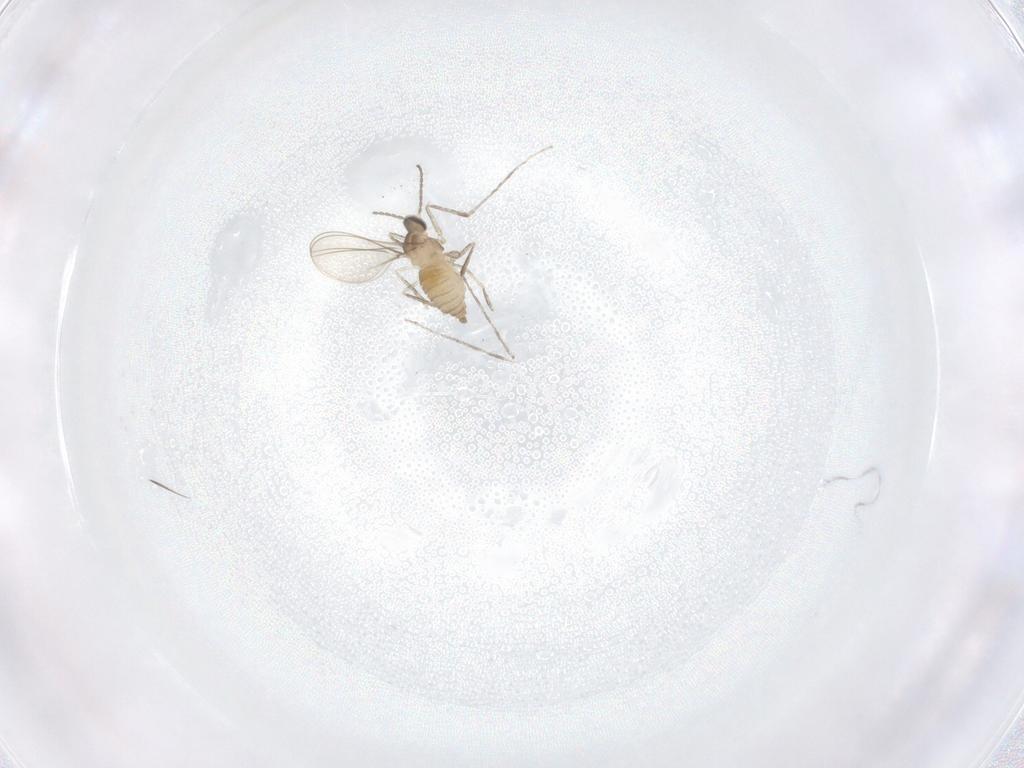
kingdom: Animalia
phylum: Arthropoda
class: Insecta
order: Diptera
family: Cecidomyiidae
